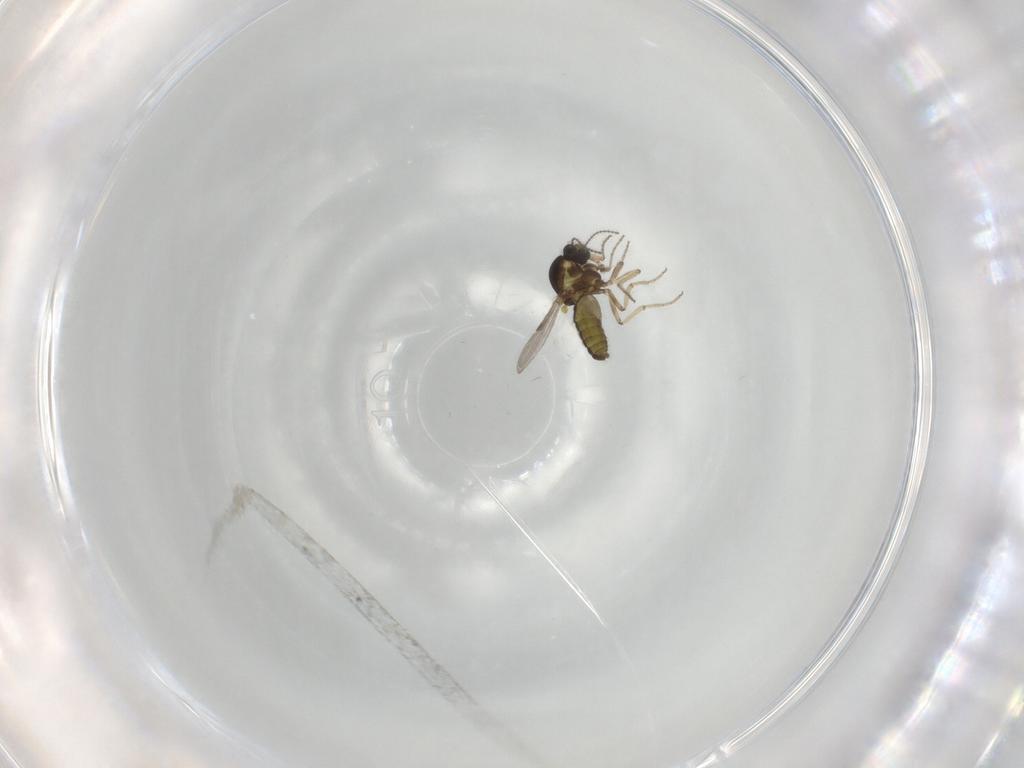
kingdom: Animalia
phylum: Arthropoda
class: Insecta
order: Diptera
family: Ceratopogonidae
